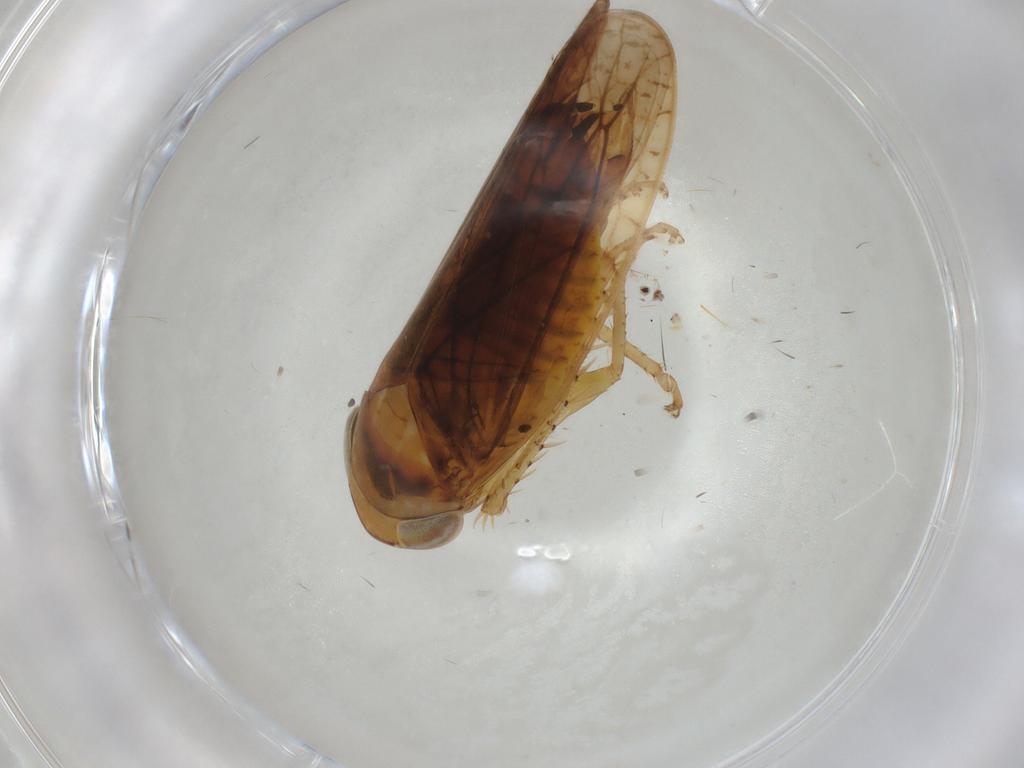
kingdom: Animalia
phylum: Arthropoda
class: Insecta
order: Hemiptera
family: Cicadellidae
